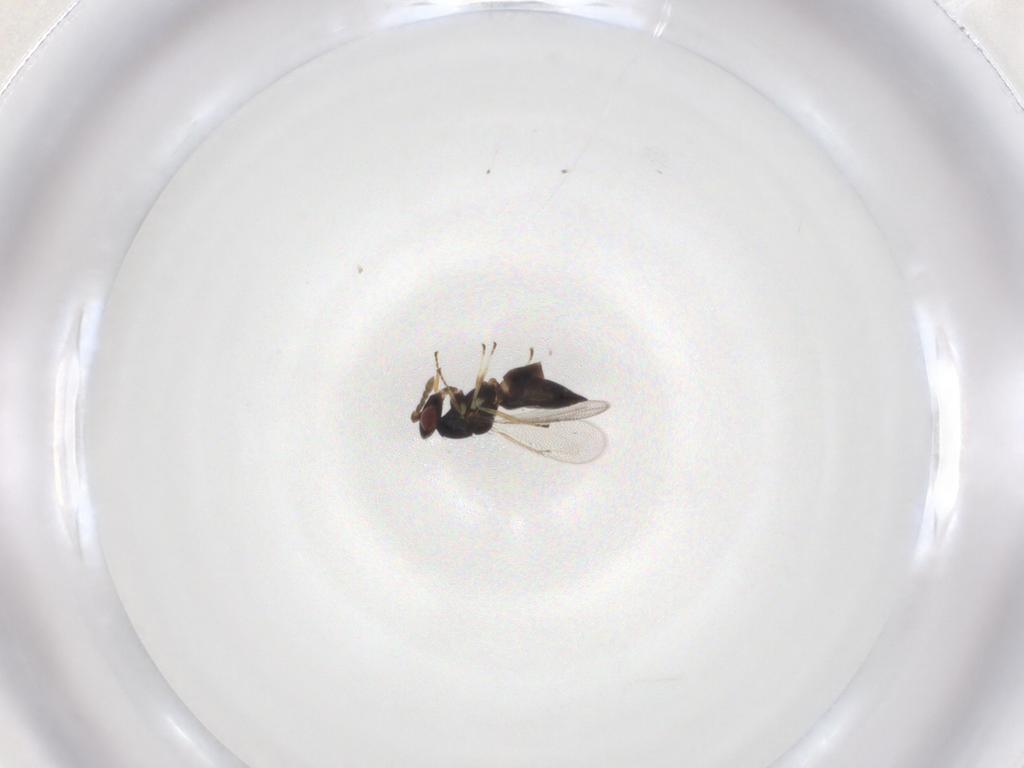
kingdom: Animalia
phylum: Arthropoda
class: Insecta
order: Hymenoptera
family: Eulophidae
